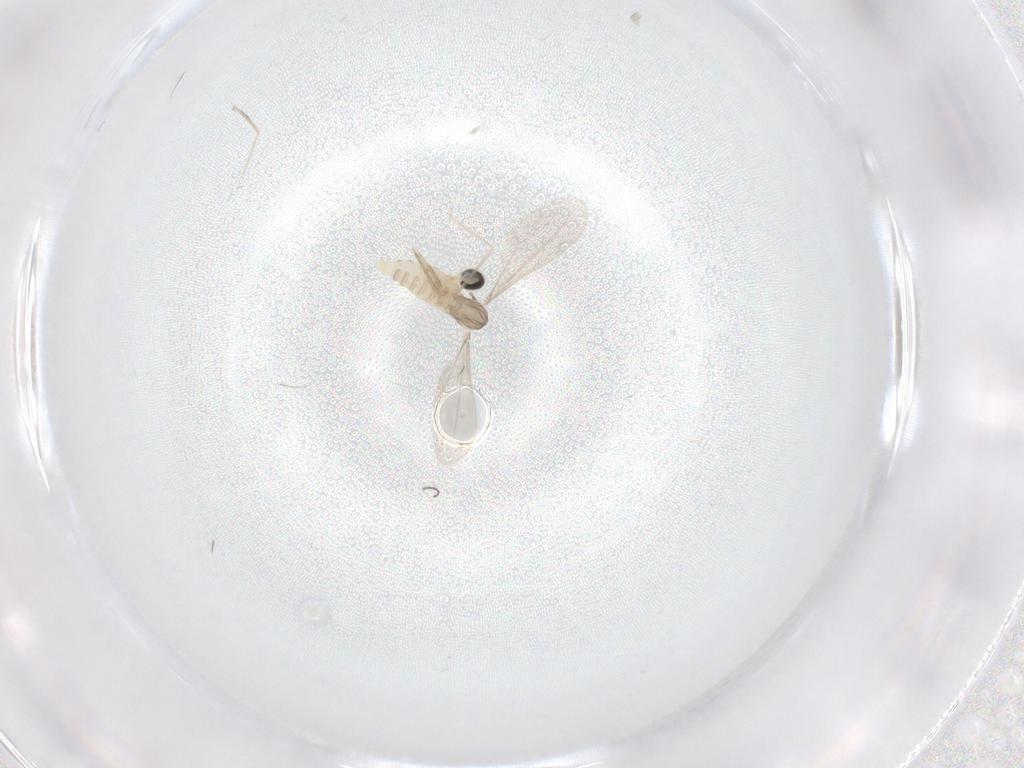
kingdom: Animalia
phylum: Arthropoda
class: Insecta
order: Diptera
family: Cecidomyiidae
